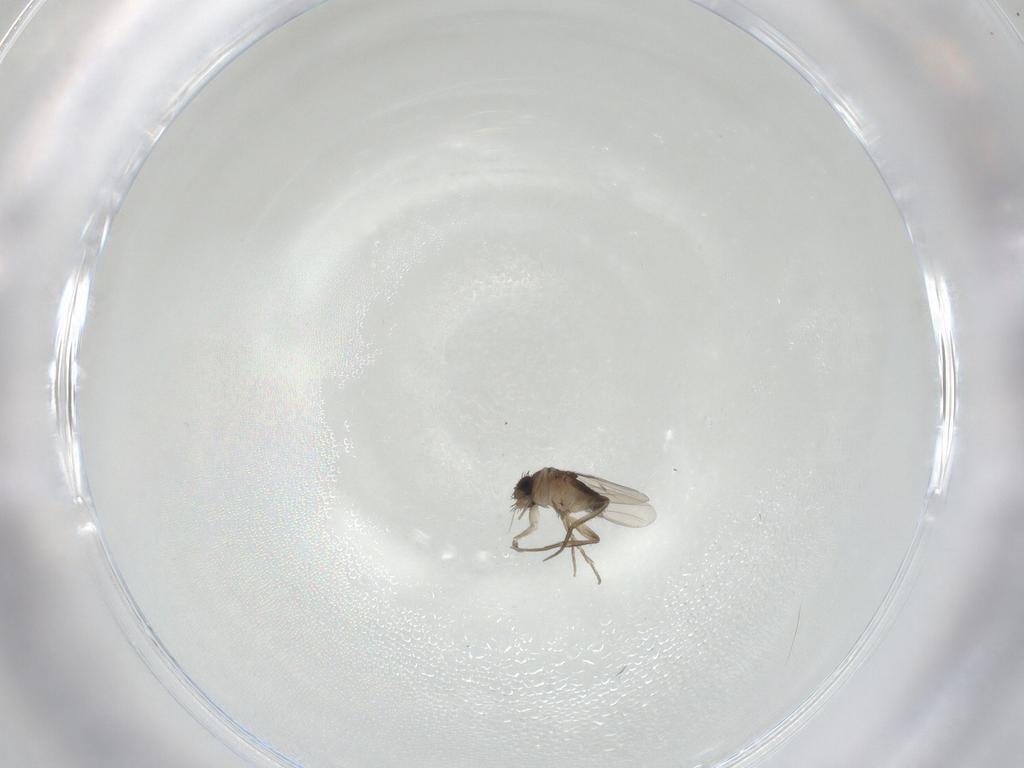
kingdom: Animalia
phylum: Arthropoda
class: Insecta
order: Diptera
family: Phoridae
